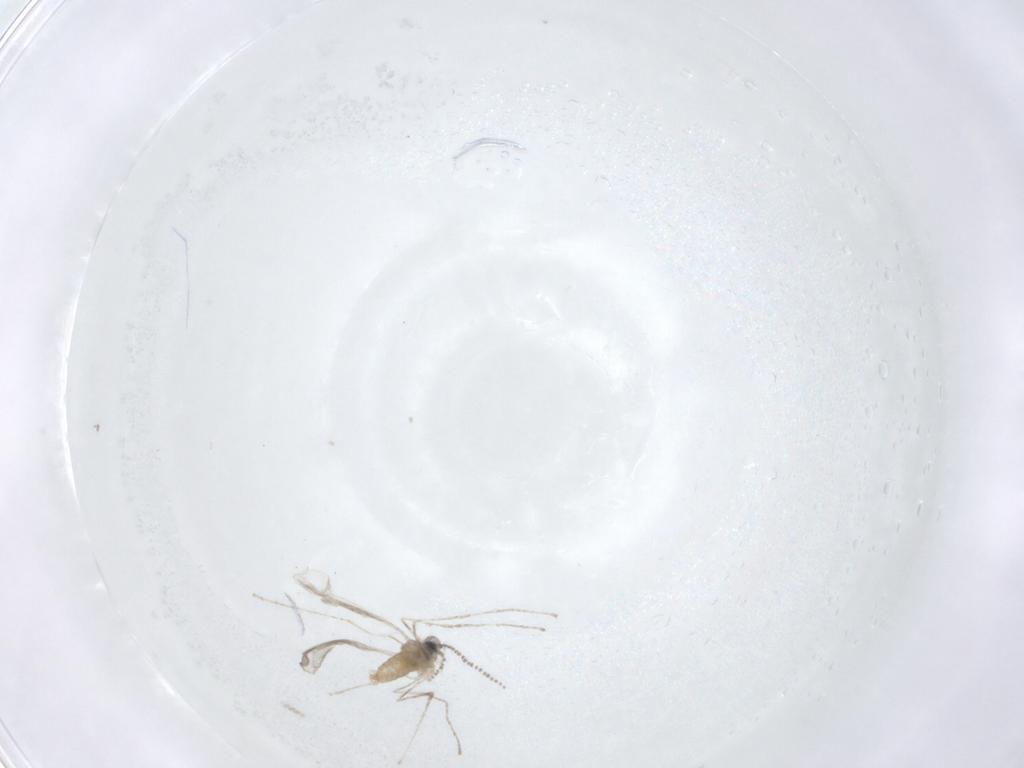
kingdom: Animalia
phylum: Arthropoda
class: Insecta
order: Diptera
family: Cecidomyiidae
